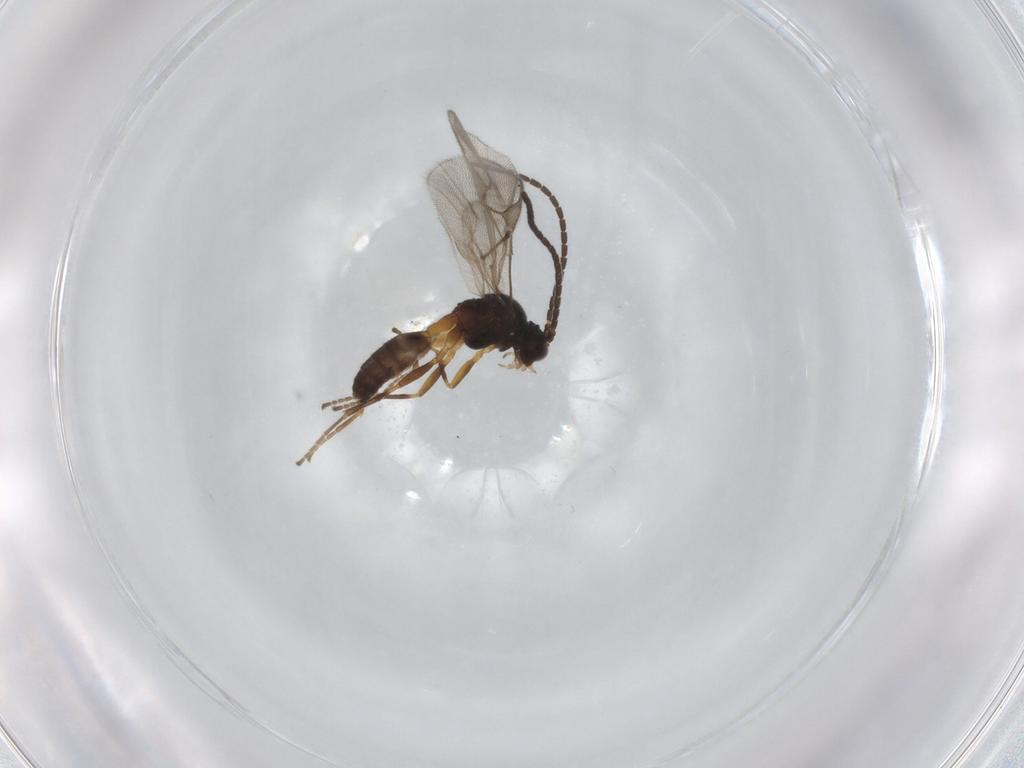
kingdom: Animalia
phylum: Arthropoda
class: Insecta
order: Hymenoptera
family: Braconidae
